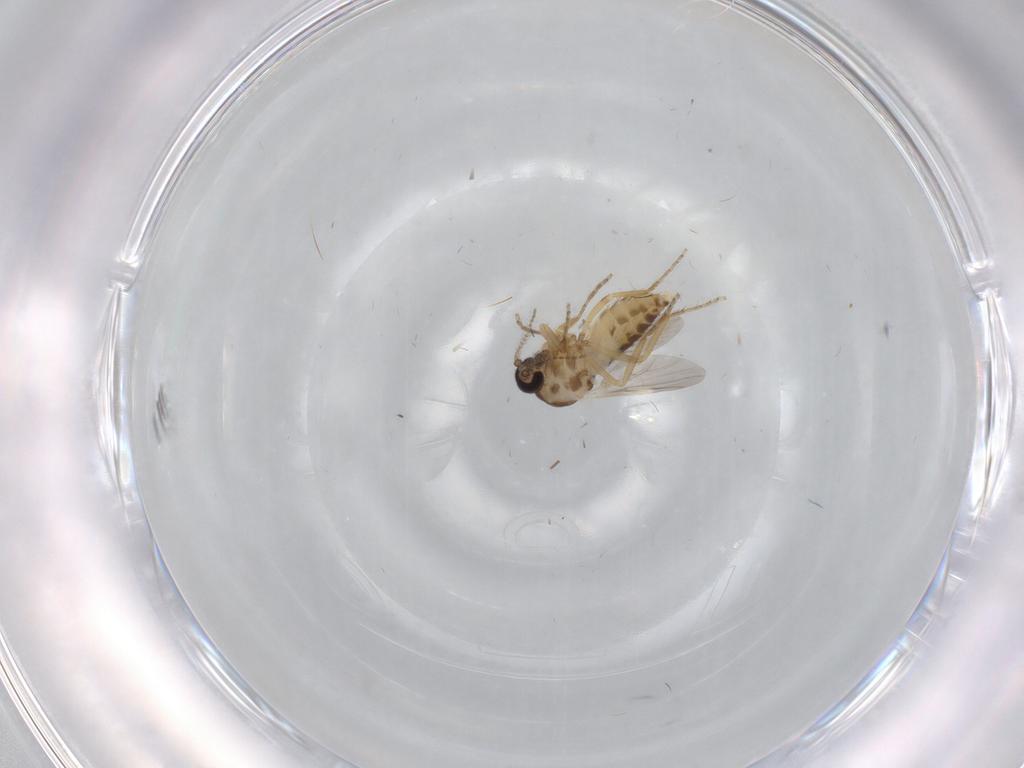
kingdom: Animalia
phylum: Arthropoda
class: Insecta
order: Diptera
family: Ceratopogonidae
